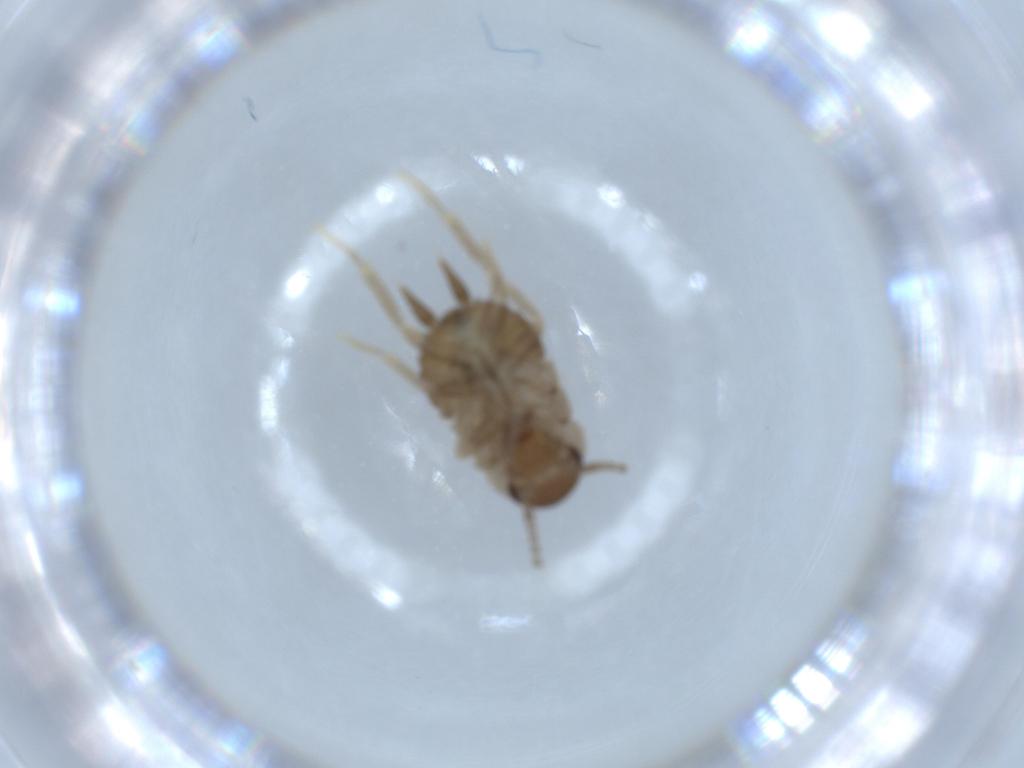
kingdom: Animalia
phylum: Arthropoda
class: Insecta
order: Blattodea
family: Ectobiidae
